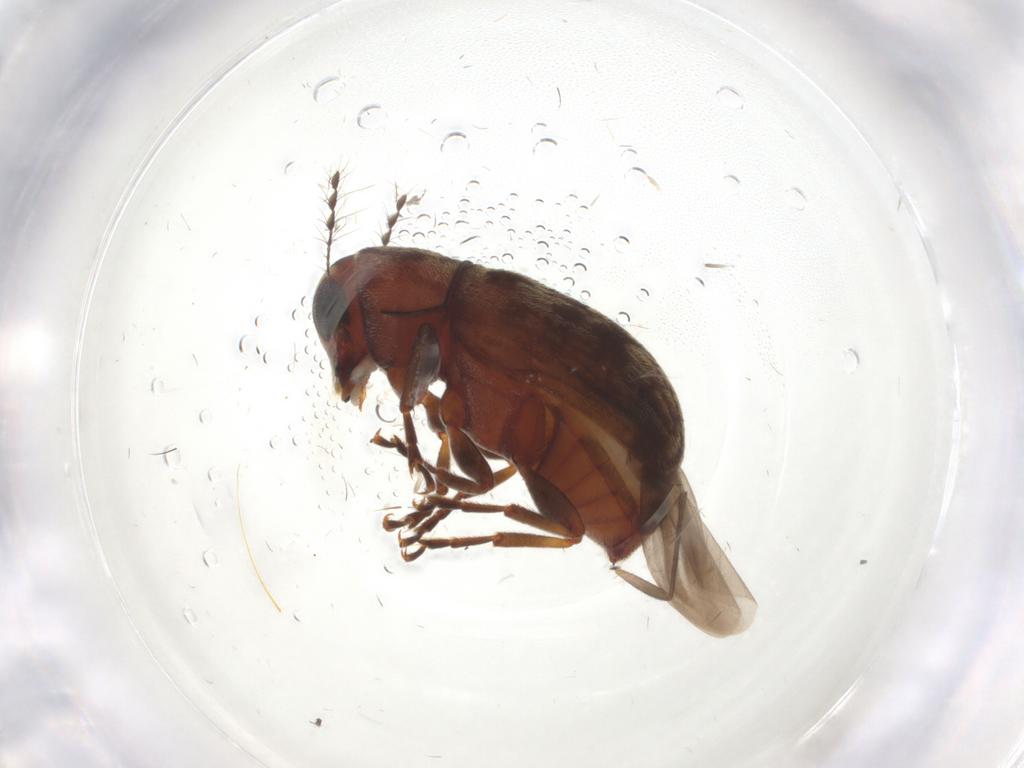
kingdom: Animalia
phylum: Arthropoda
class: Insecta
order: Coleoptera
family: Anthribidae
